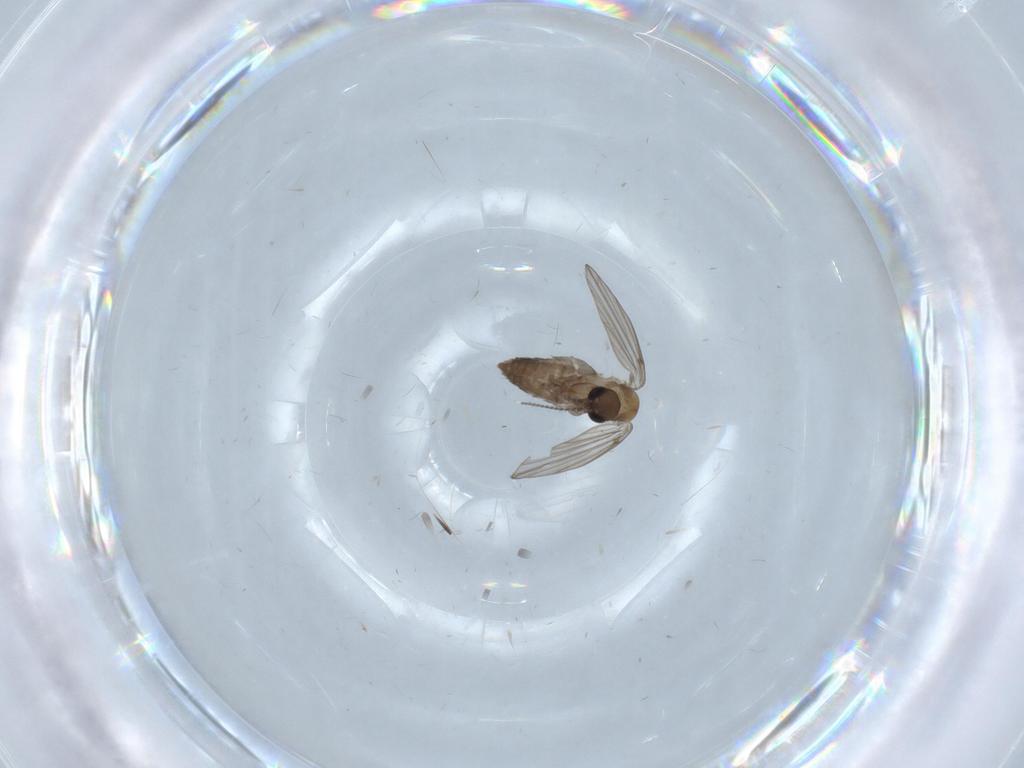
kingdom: Animalia
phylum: Arthropoda
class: Insecta
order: Diptera
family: Psychodidae
